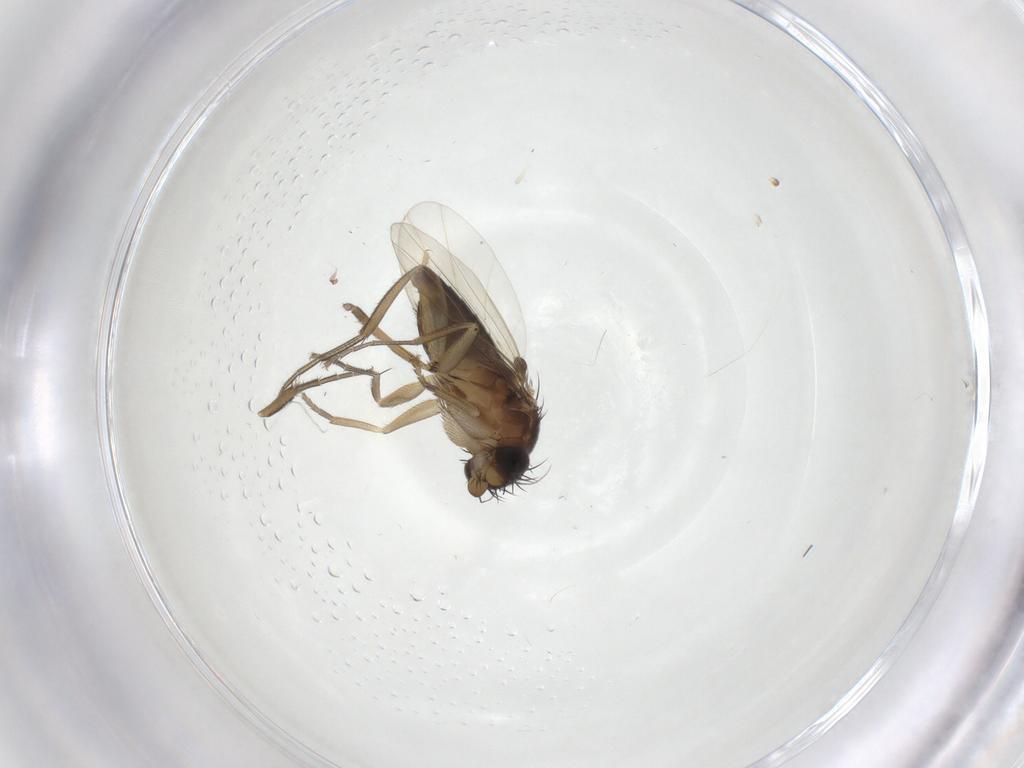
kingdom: Animalia
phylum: Arthropoda
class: Insecta
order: Diptera
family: Phoridae
